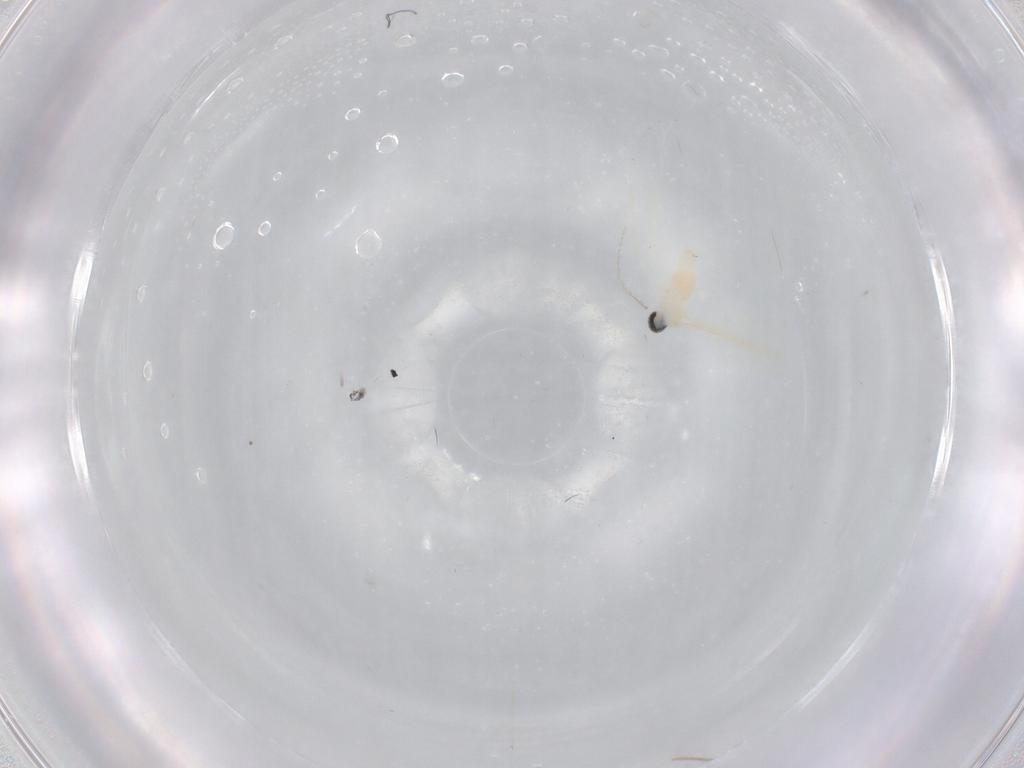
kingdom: Animalia
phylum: Arthropoda
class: Insecta
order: Diptera
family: Cecidomyiidae
